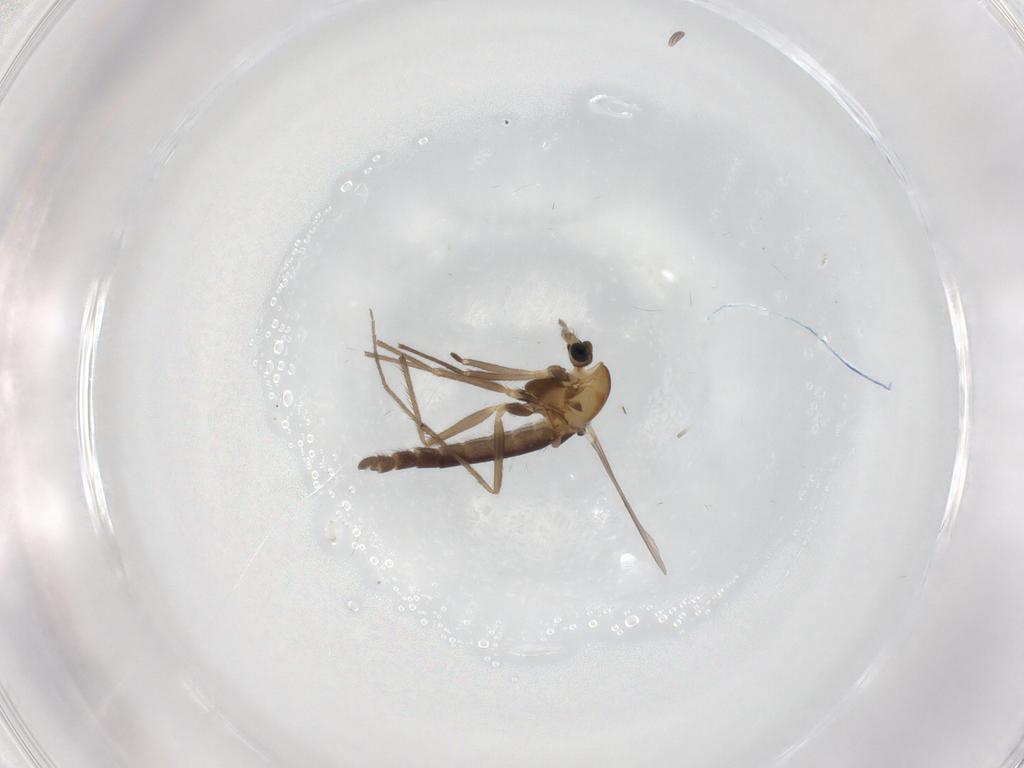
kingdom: Animalia
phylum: Arthropoda
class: Insecta
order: Diptera
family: Chironomidae
